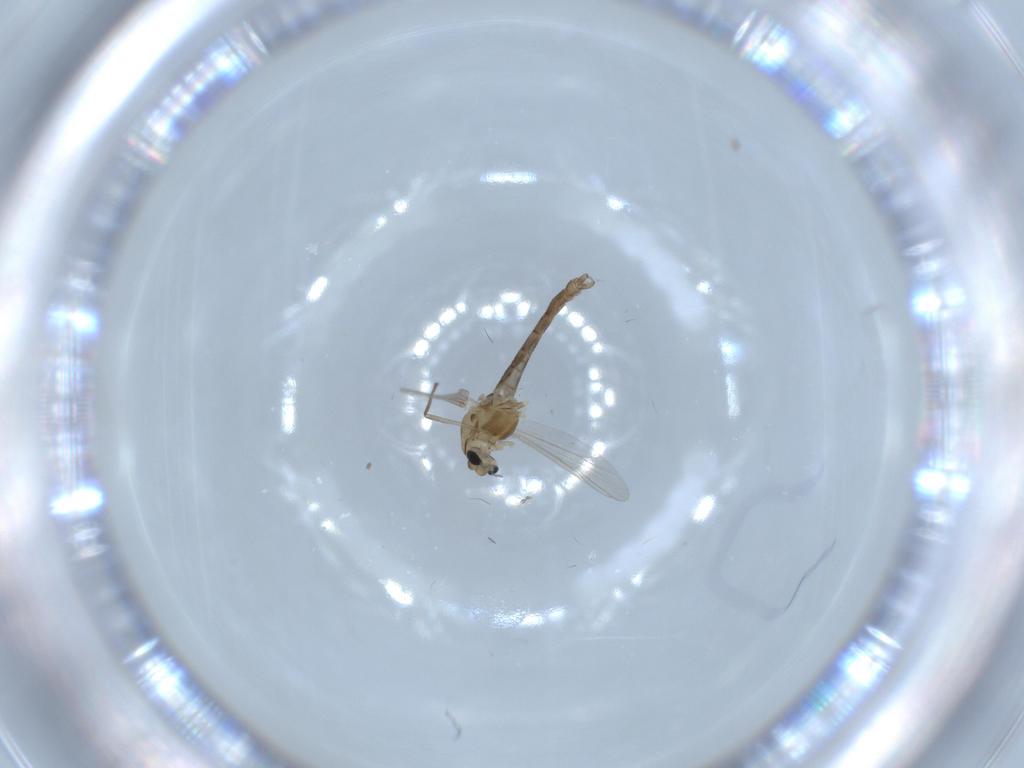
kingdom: Animalia
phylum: Arthropoda
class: Insecta
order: Diptera
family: Chironomidae
